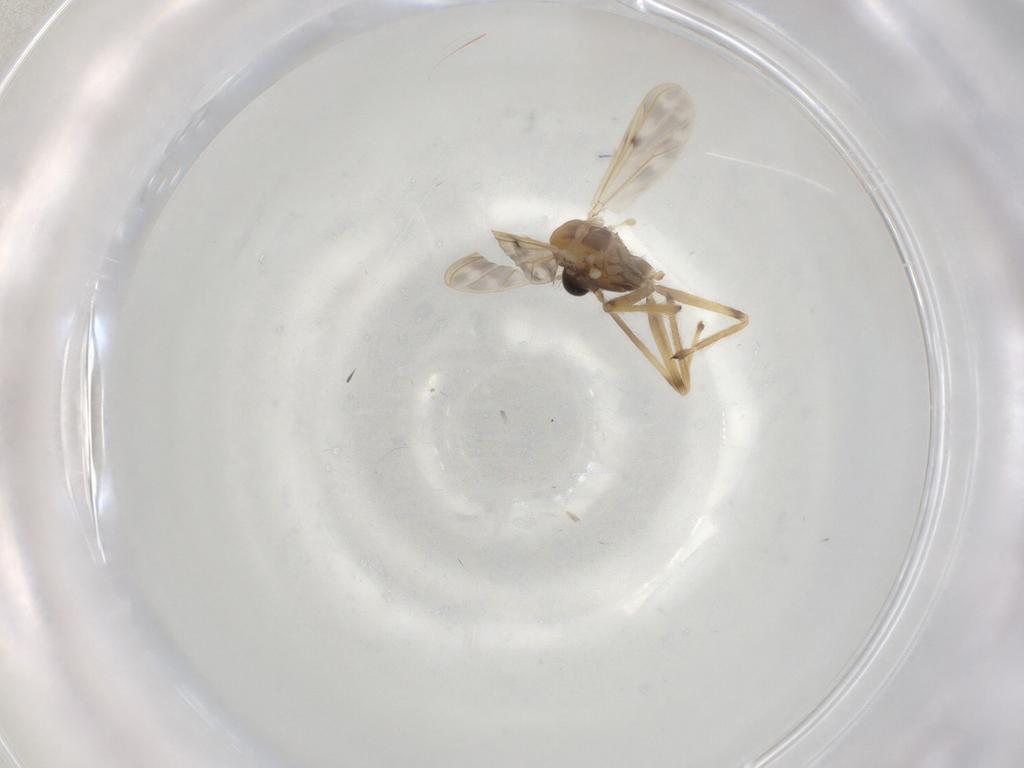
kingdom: Animalia
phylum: Arthropoda
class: Insecta
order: Diptera
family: Chironomidae
